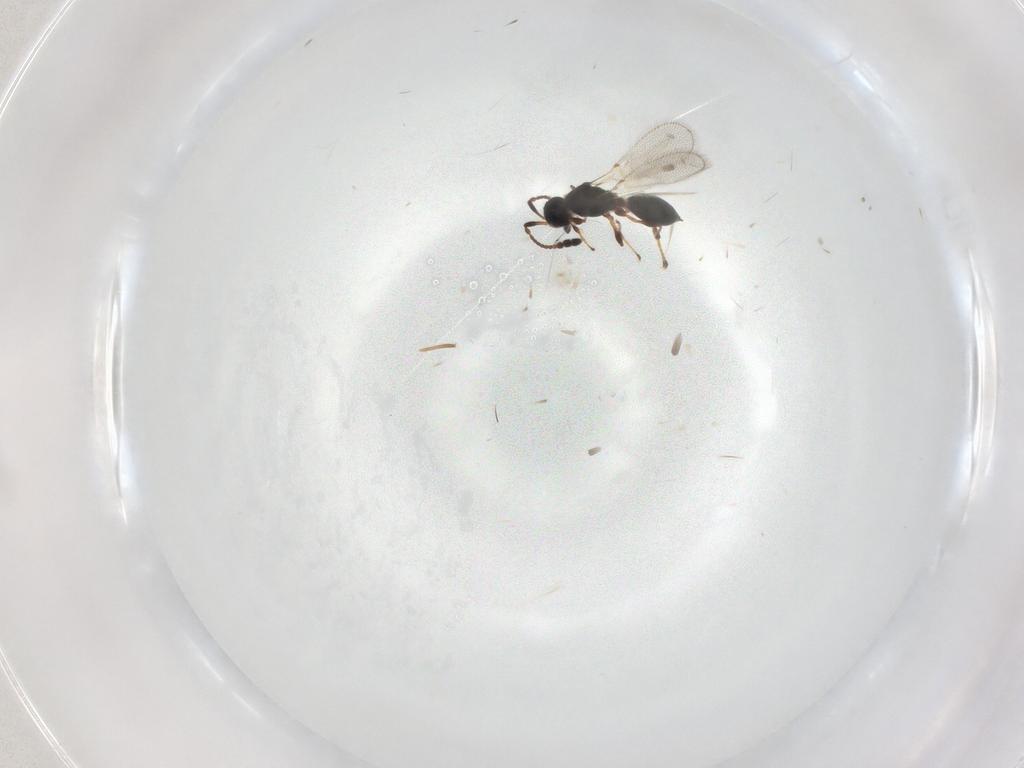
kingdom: Animalia
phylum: Arthropoda
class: Insecta
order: Hymenoptera
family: Diapriidae
